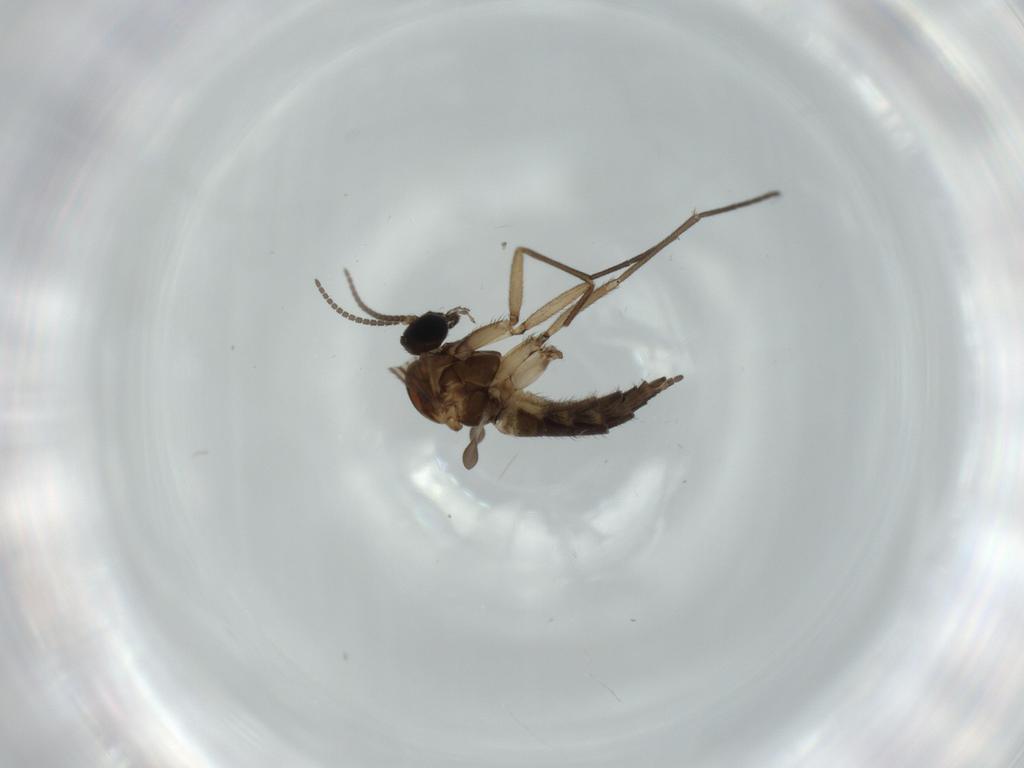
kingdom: Animalia
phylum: Arthropoda
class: Insecta
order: Diptera
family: Sciaridae
